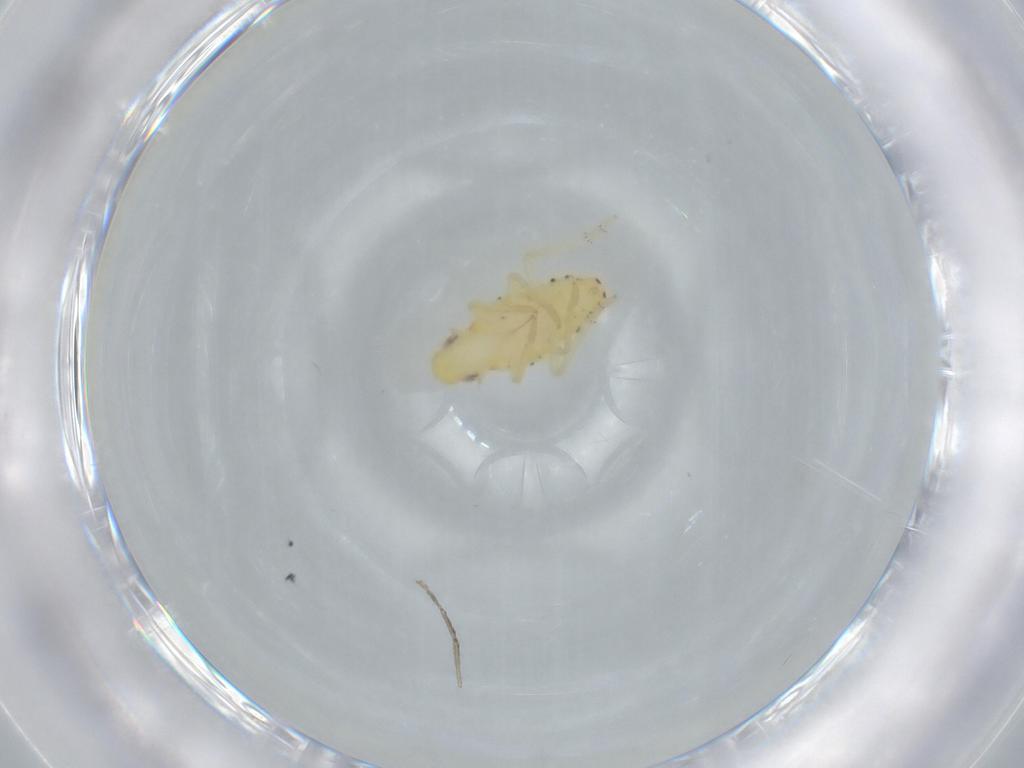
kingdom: Animalia
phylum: Arthropoda
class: Insecta
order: Hemiptera
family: Tropiduchidae
